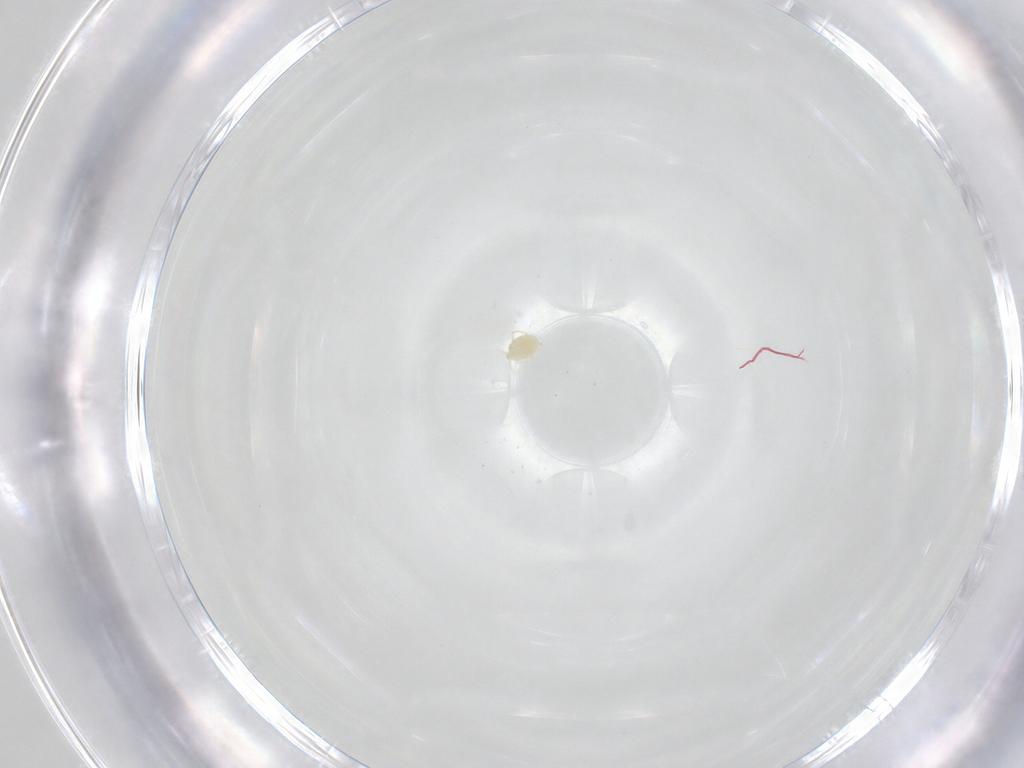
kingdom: Animalia
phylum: Arthropoda
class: Arachnida
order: Trombidiformes
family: Torrenticolidae
